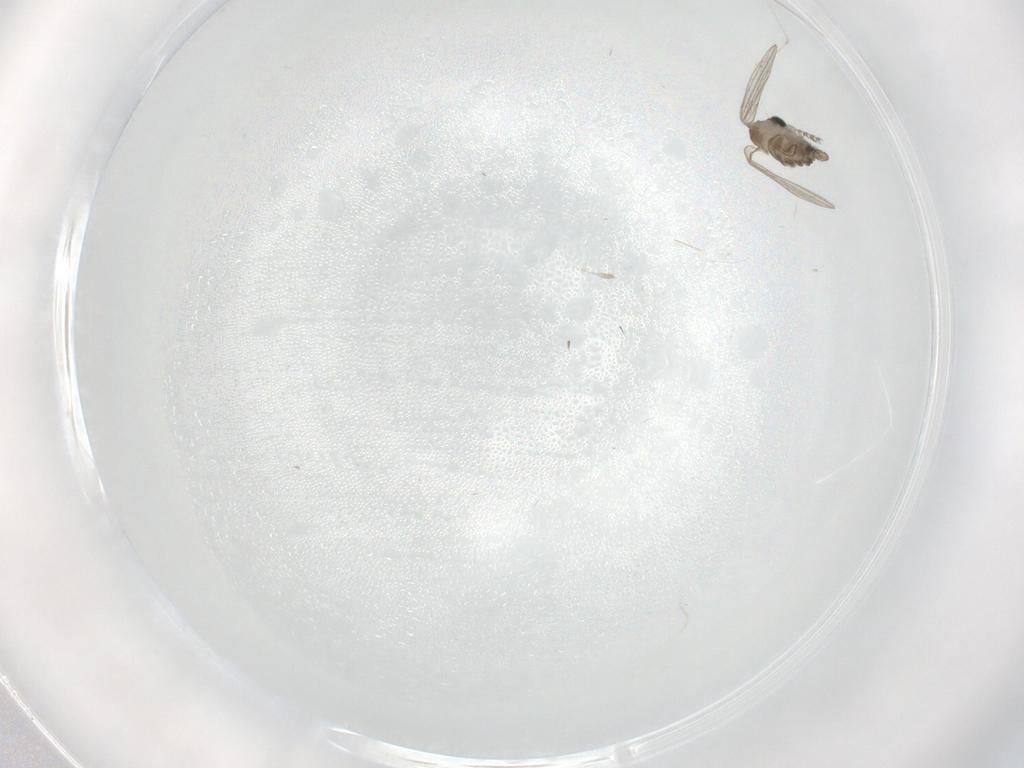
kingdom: Animalia
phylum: Arthropoda
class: Insecta
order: Diptera
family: Cecidomyiidae
